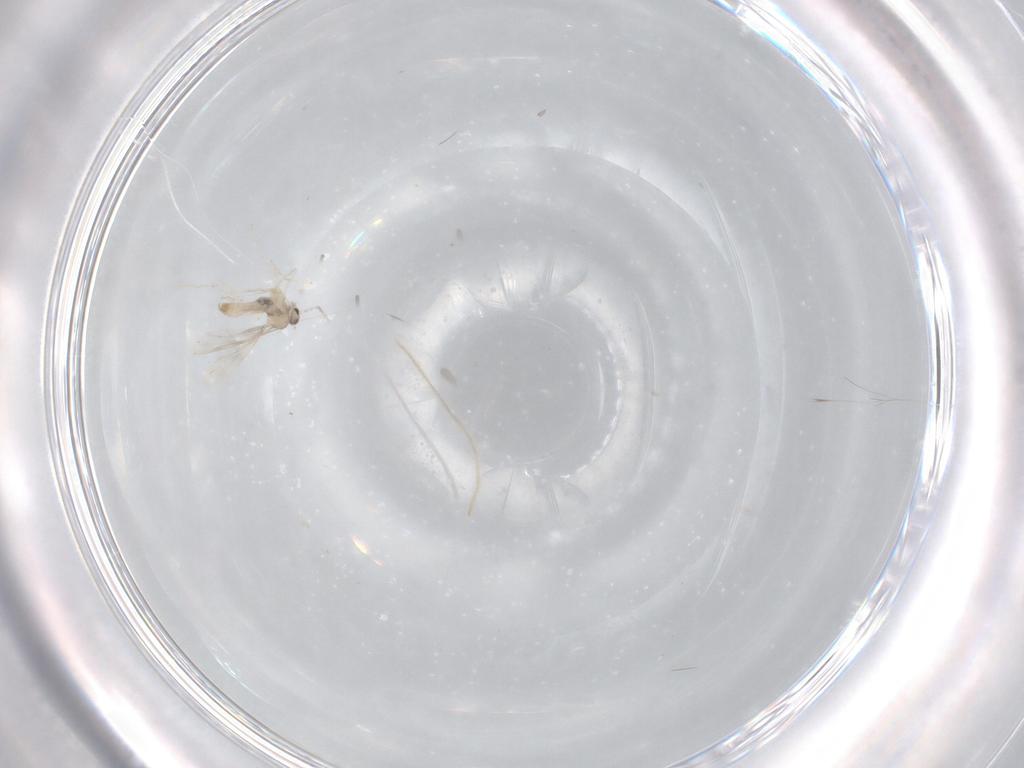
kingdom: Animalia
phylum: Arthropoda
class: Insecta
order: Diptera
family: Cecidomyiidae
